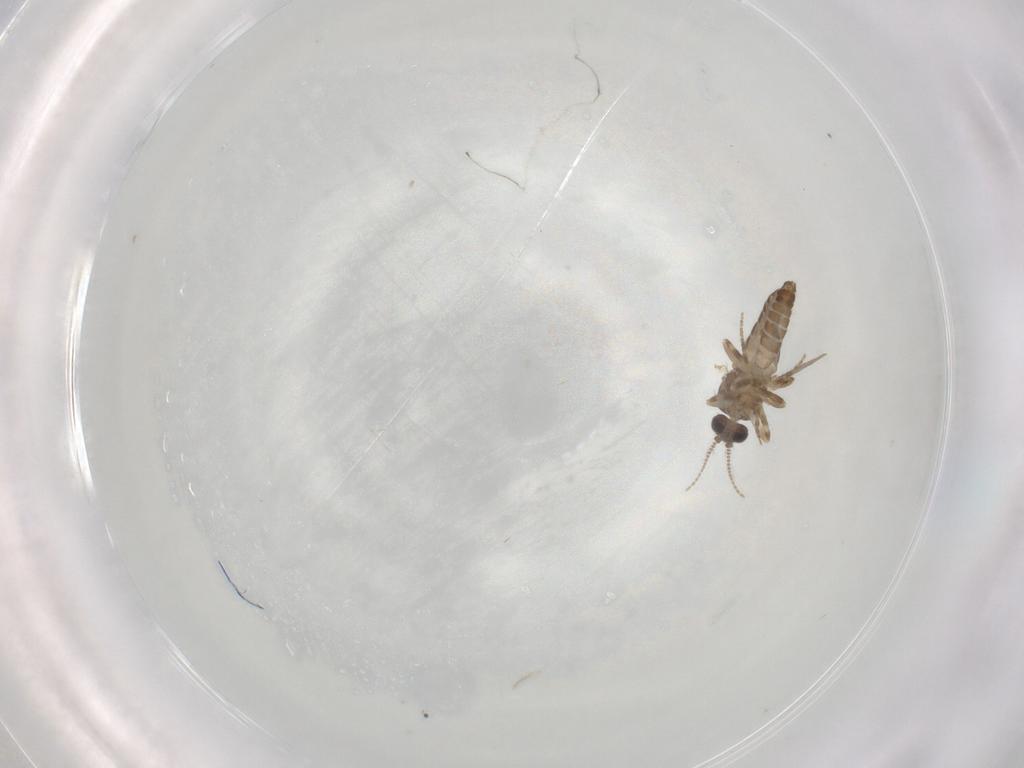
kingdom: Animalia
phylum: Arthropoda
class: Insecta
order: Diptera
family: Ceratopogonidae
